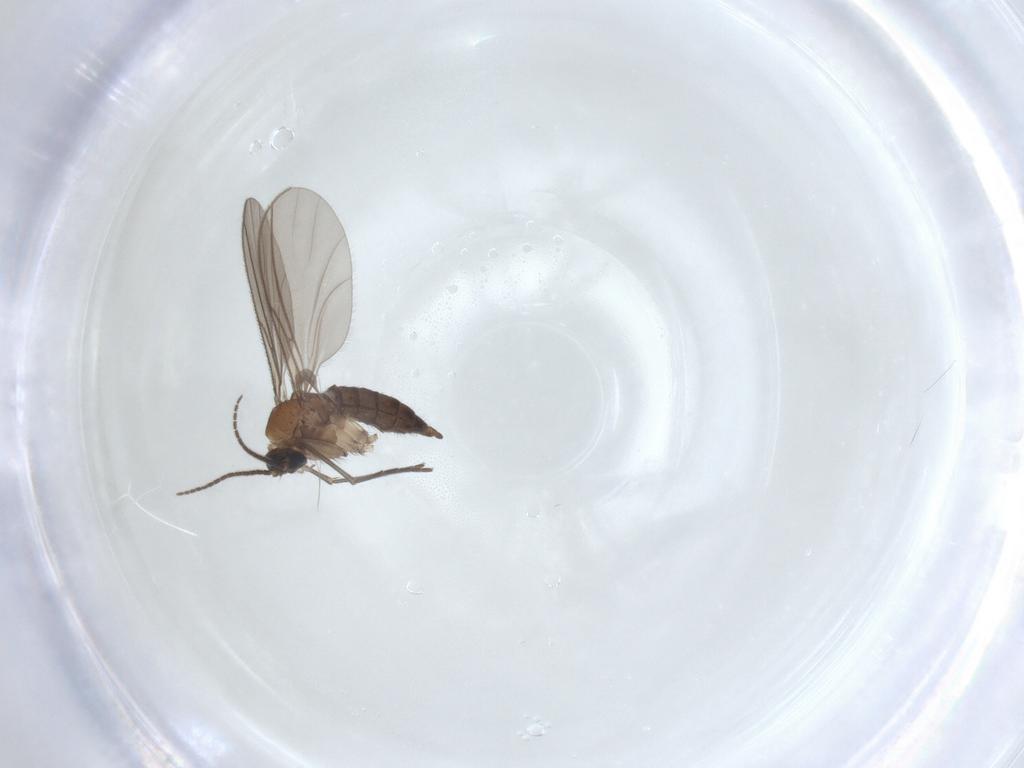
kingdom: Animalia
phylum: Arthropoda
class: Insecta
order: Diptera
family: Sciaridae
